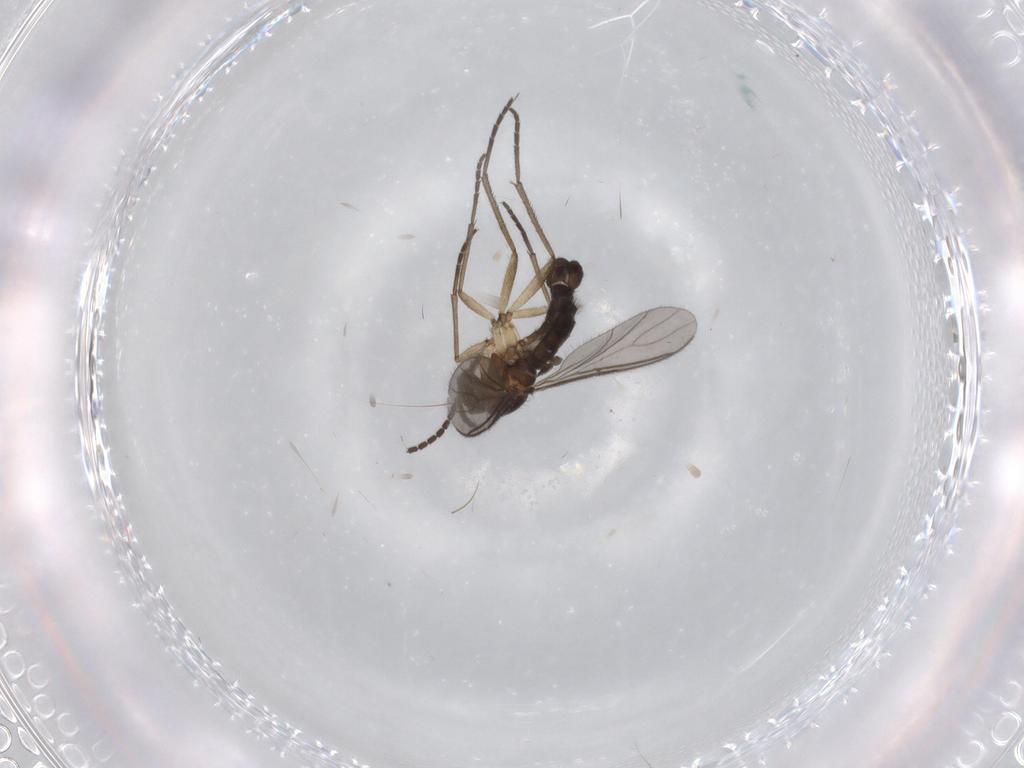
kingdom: Animalia
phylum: Arthropoda
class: Insecta
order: Diptera
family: Sciaridae
